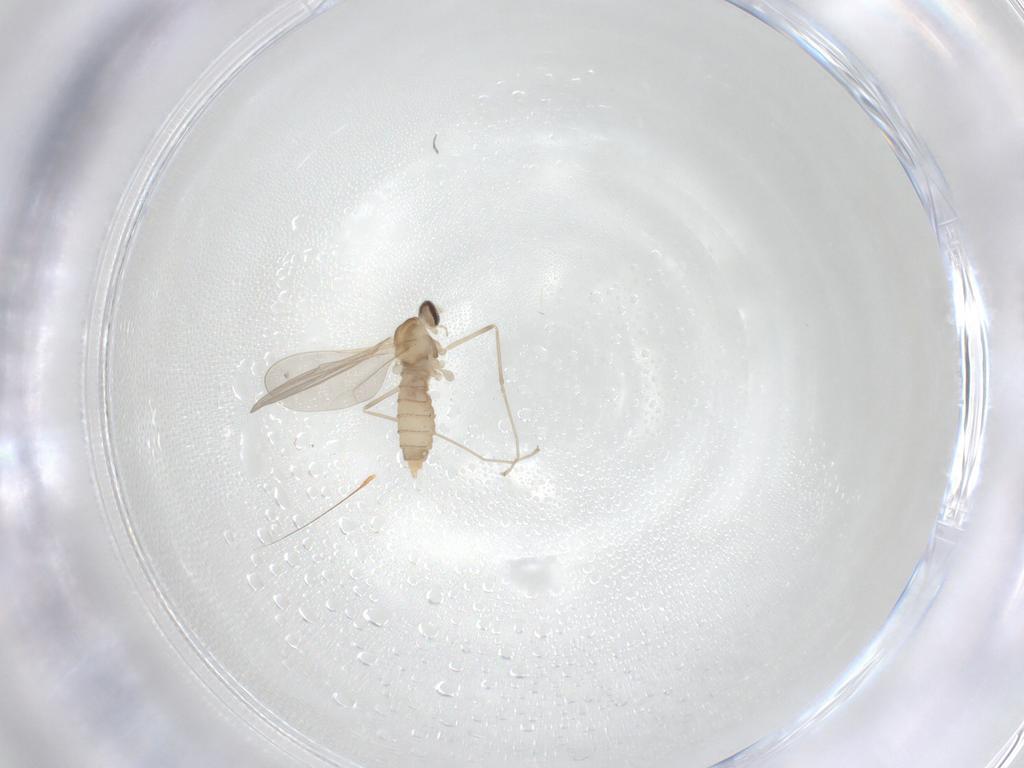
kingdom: Animalia
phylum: Arthropoda
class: Insecta
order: Diptera
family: Cecidomyiidae
